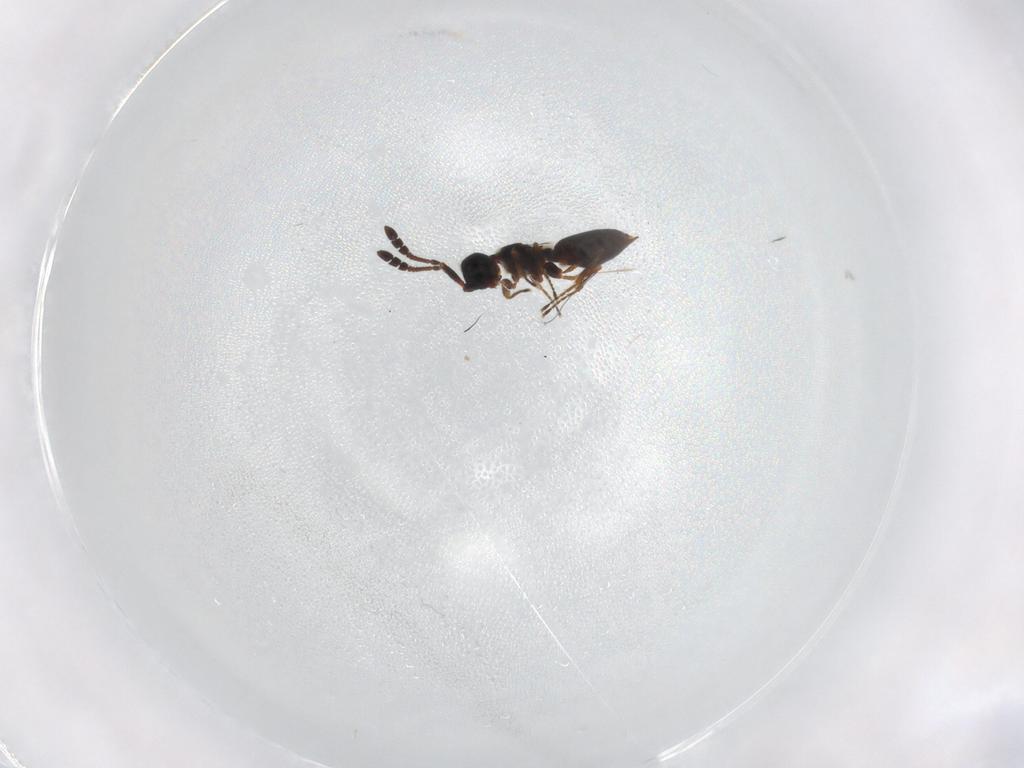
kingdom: Animalia
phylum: Arthropoda
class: Insecta
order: Hymenoptera
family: Diapriidae
